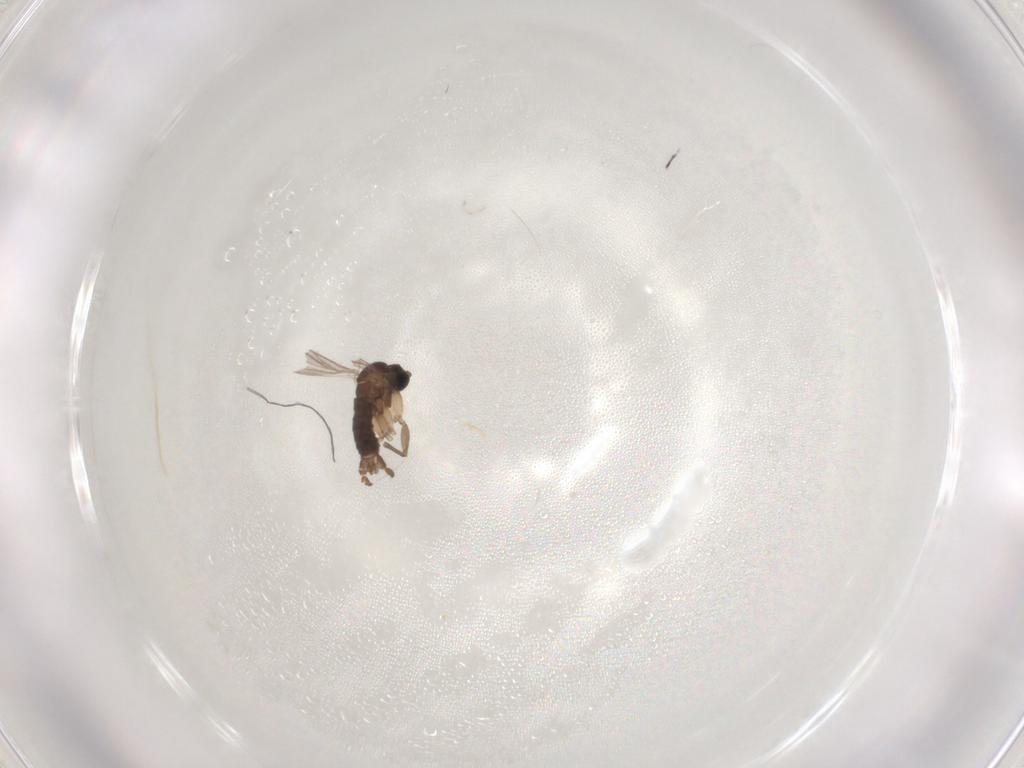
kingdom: Animalia
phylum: Arthropoda
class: Insecta
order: Diptera
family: Sciaridae
